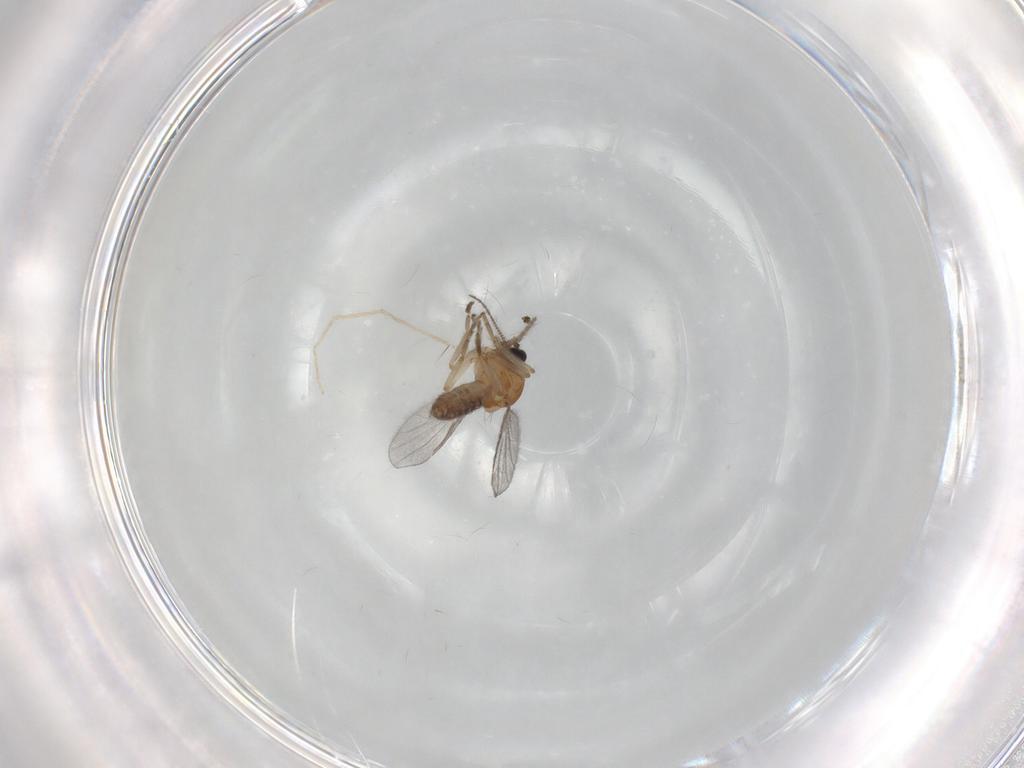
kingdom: Animalia
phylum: Arthropoda
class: Insecta
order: Diptera
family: Chironomidae
